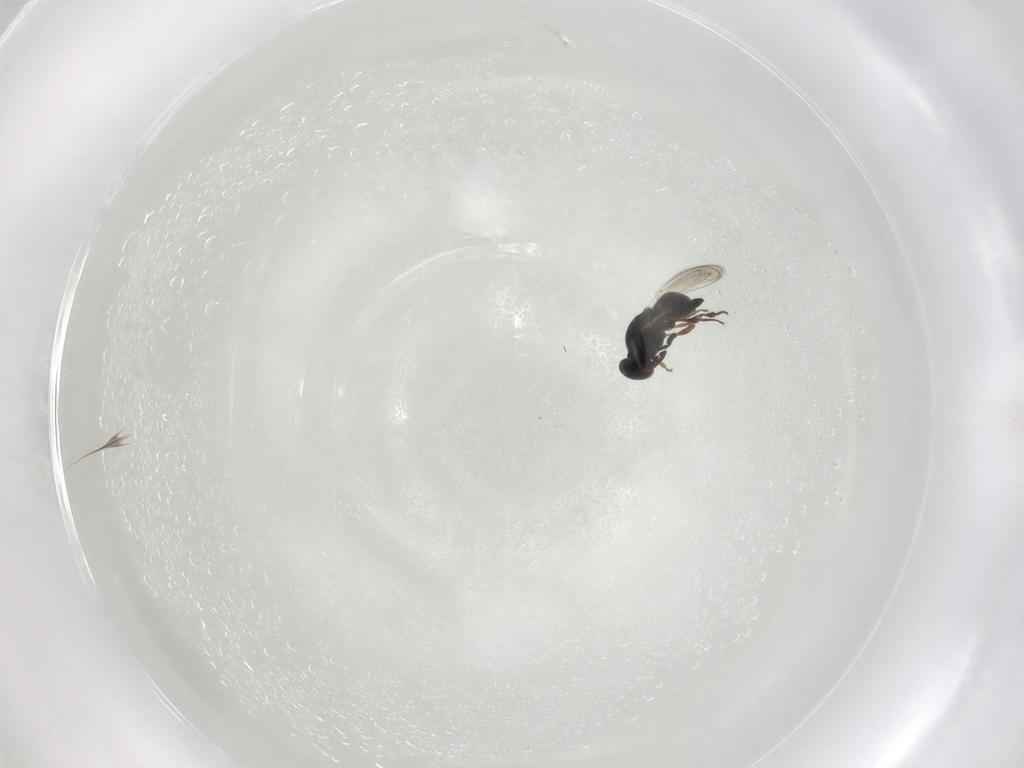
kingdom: Animalia
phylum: Arthropoda
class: Insecta
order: Hymenoptera
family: Platygastridae
